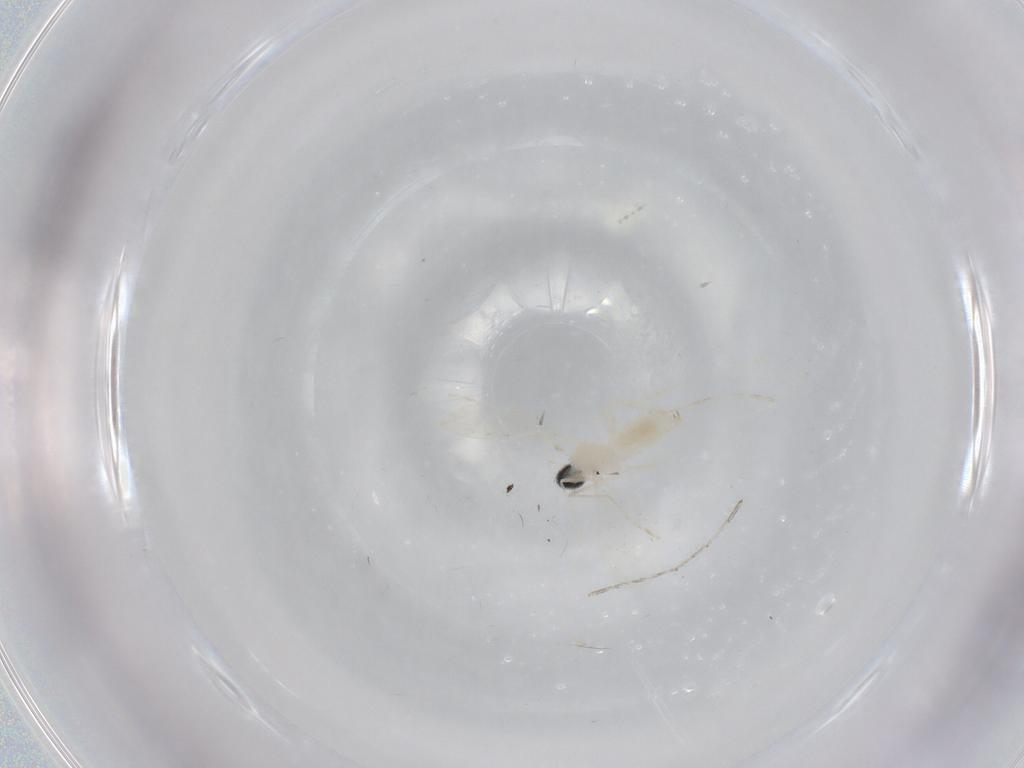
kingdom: Animalia
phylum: Arthropoda
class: Insecta
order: Diptera
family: Cecidomyiidae
